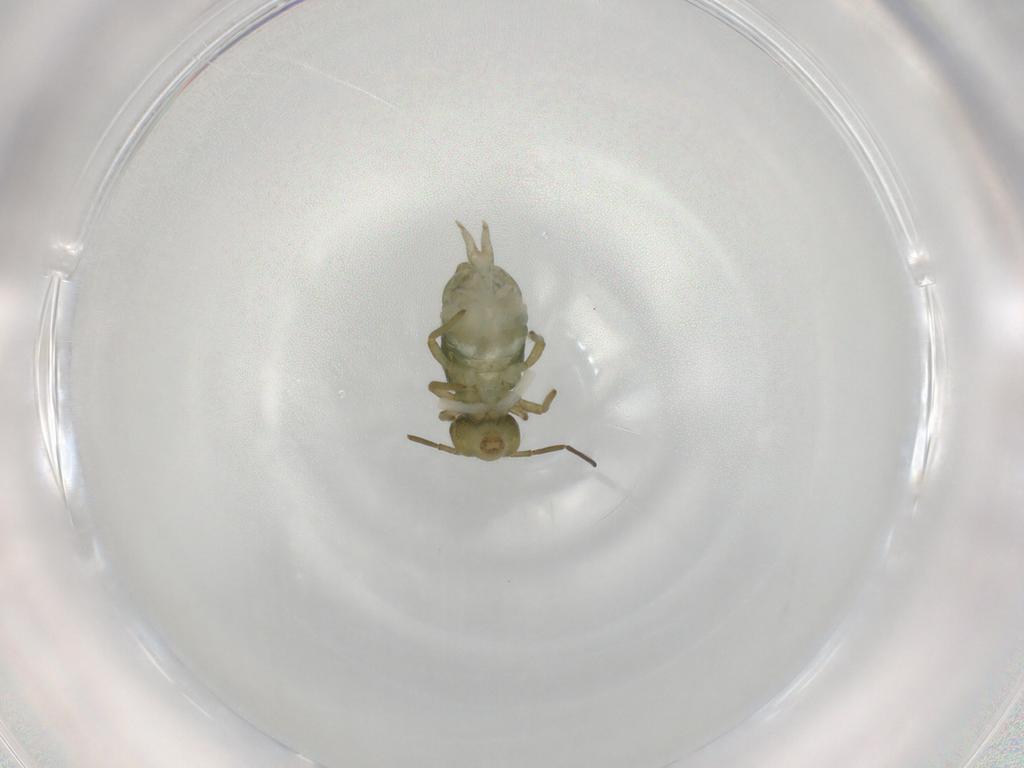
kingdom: Animalia
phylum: Arthropoda
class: Collembola
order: Symphypleona
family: Sminthuridae
